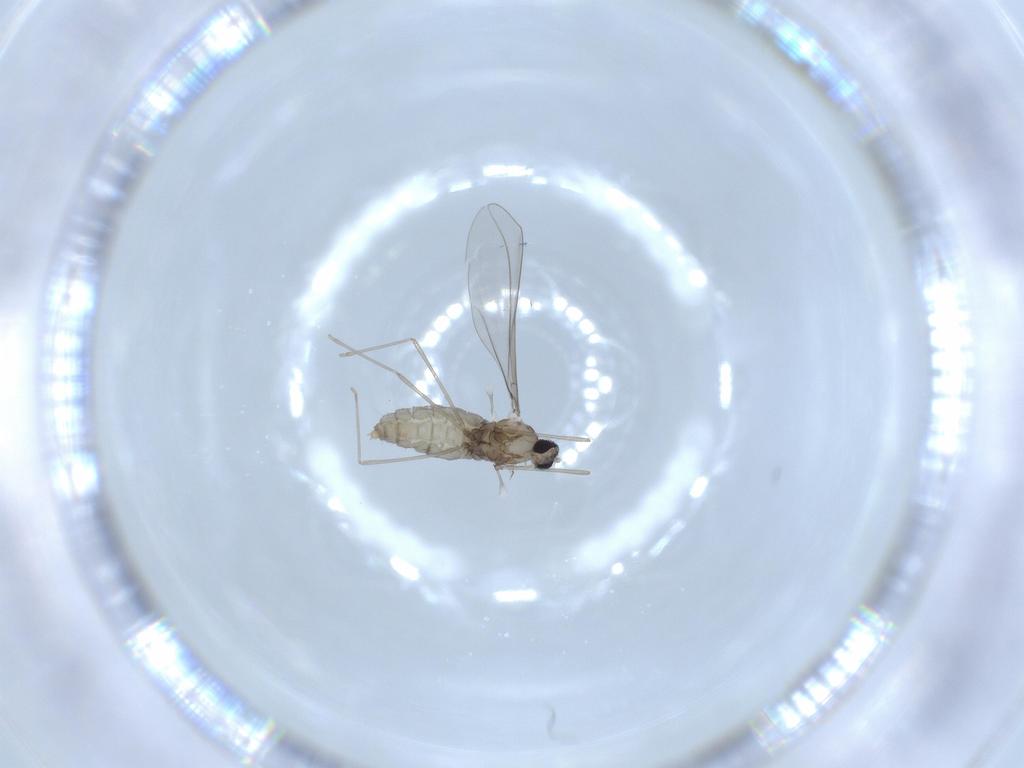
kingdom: Animalia
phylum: Arthropoda
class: Insecta
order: Diptera
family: Cecidomyiidae
